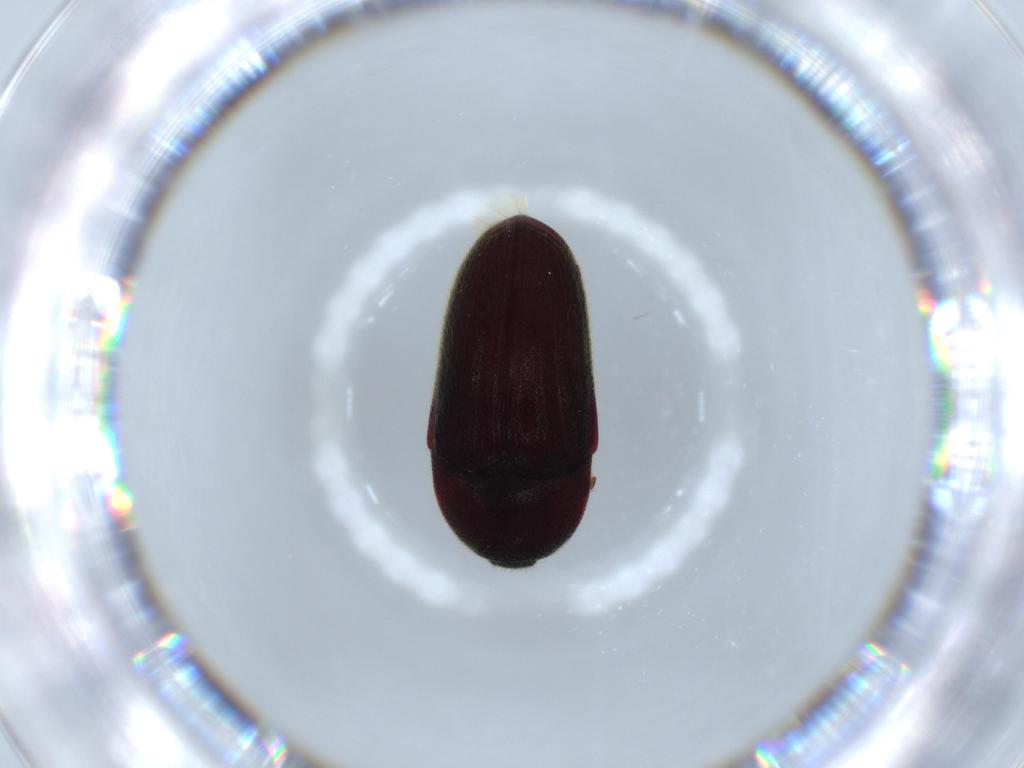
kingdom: Animalia
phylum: Arthropoda
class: Insecta
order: Coleoptera
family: Throscidae
